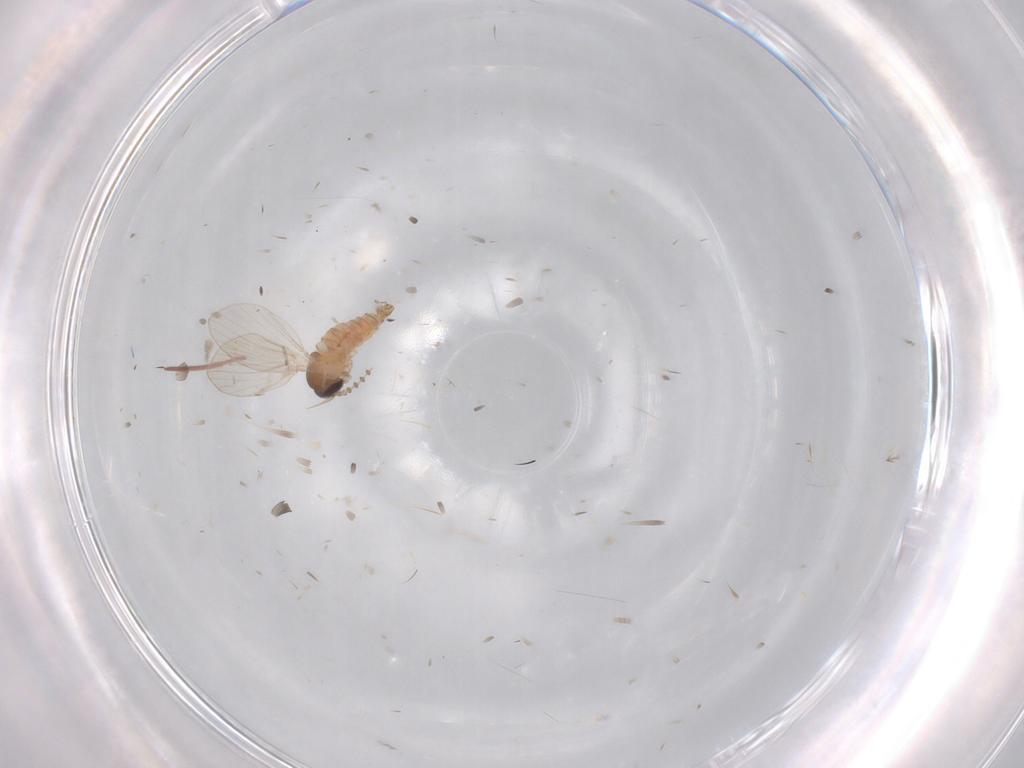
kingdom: Animalia
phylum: Arthropoda
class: Insecta
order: Diptera
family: Psychodidae
